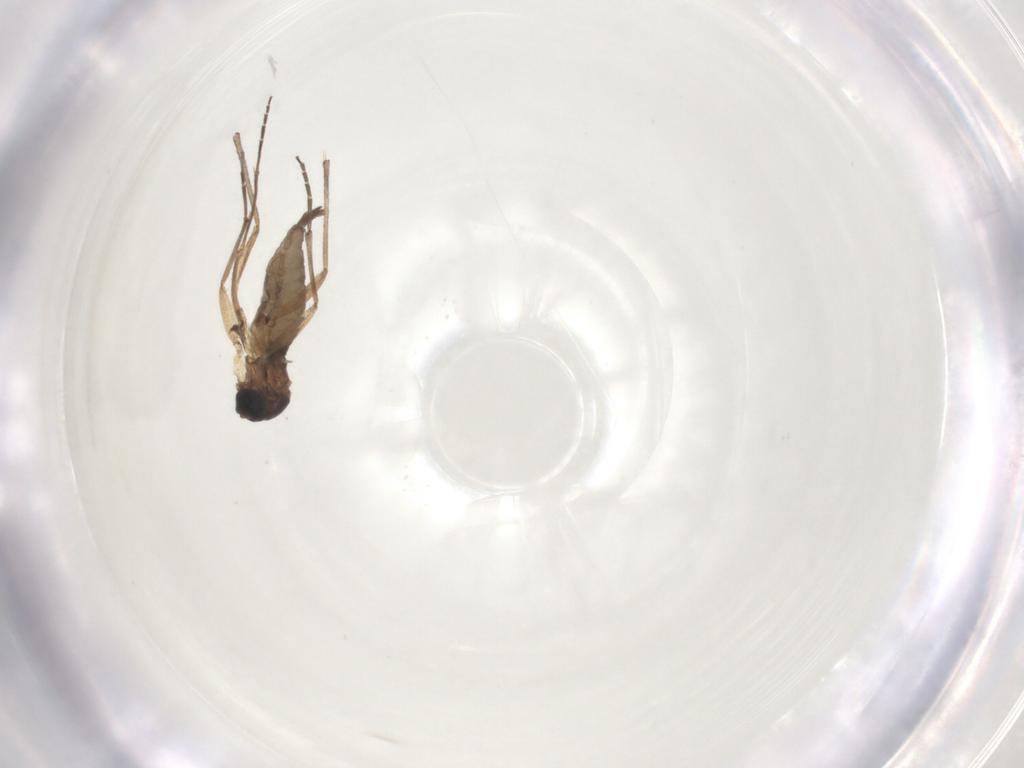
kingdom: Animalia
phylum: Arthropoda
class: Insecta
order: Diptera
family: Sciaridae
